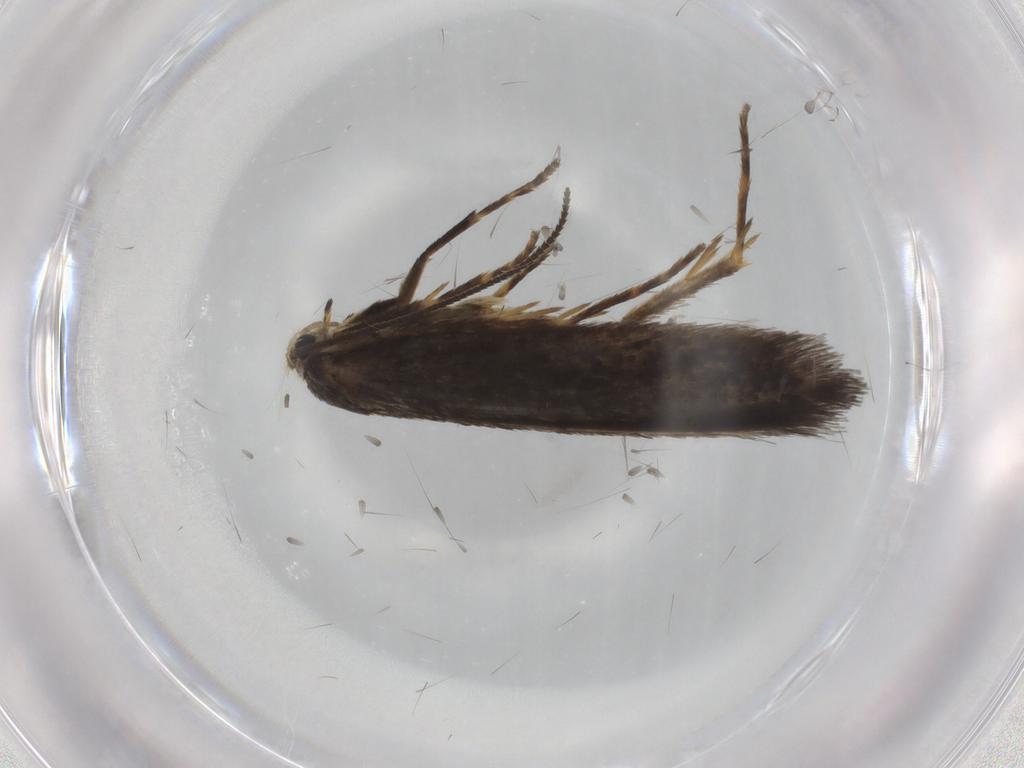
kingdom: Animalia
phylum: Arthropoda
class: Insecta
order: Lepidoptera
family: Nepticulidae
